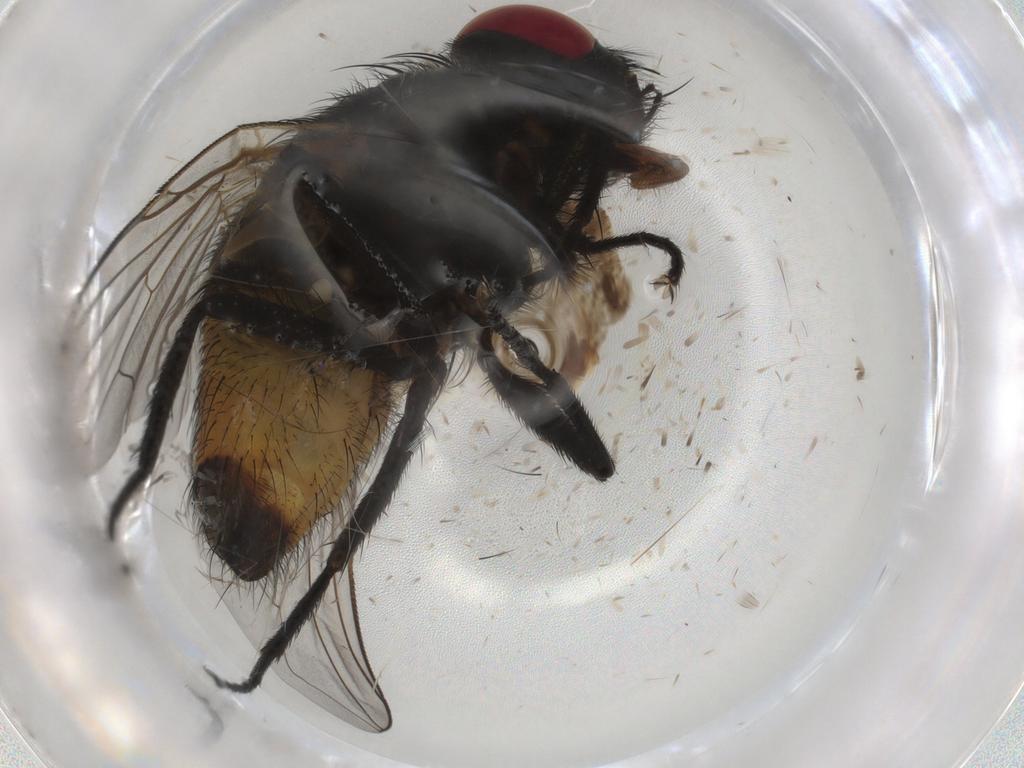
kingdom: Animalia
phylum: Arthropoda
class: Insecta
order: Diptera
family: Muscidae
